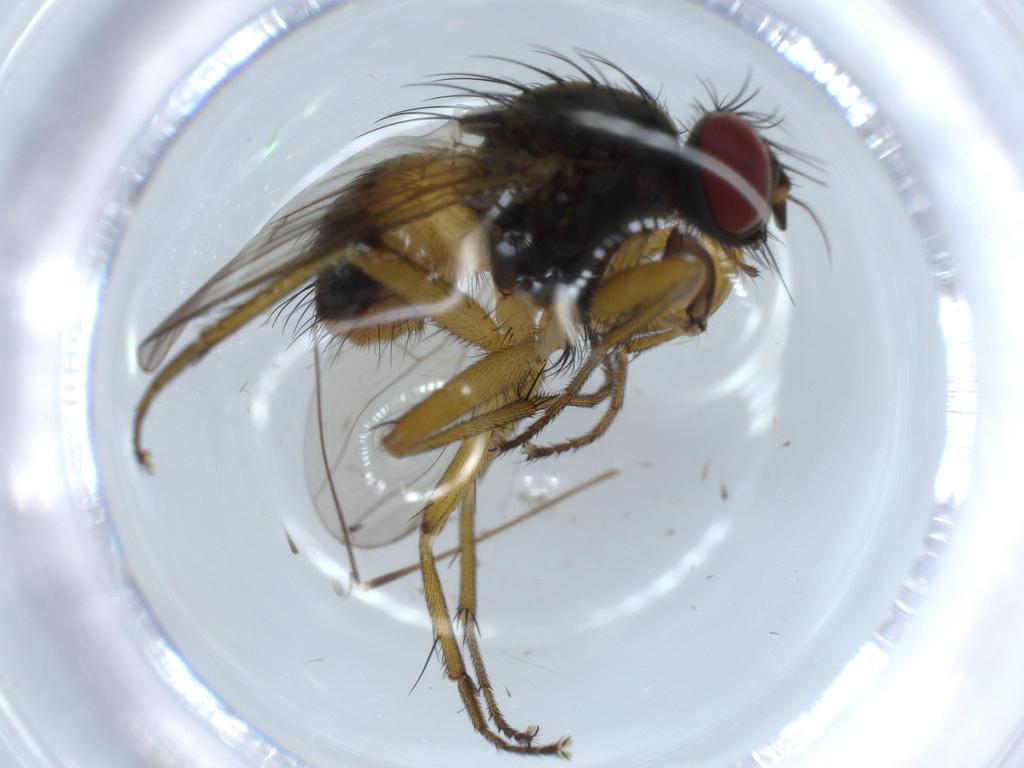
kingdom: Animalia
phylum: Arthropoda
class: Insecta
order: Diptera
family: Muscidae
